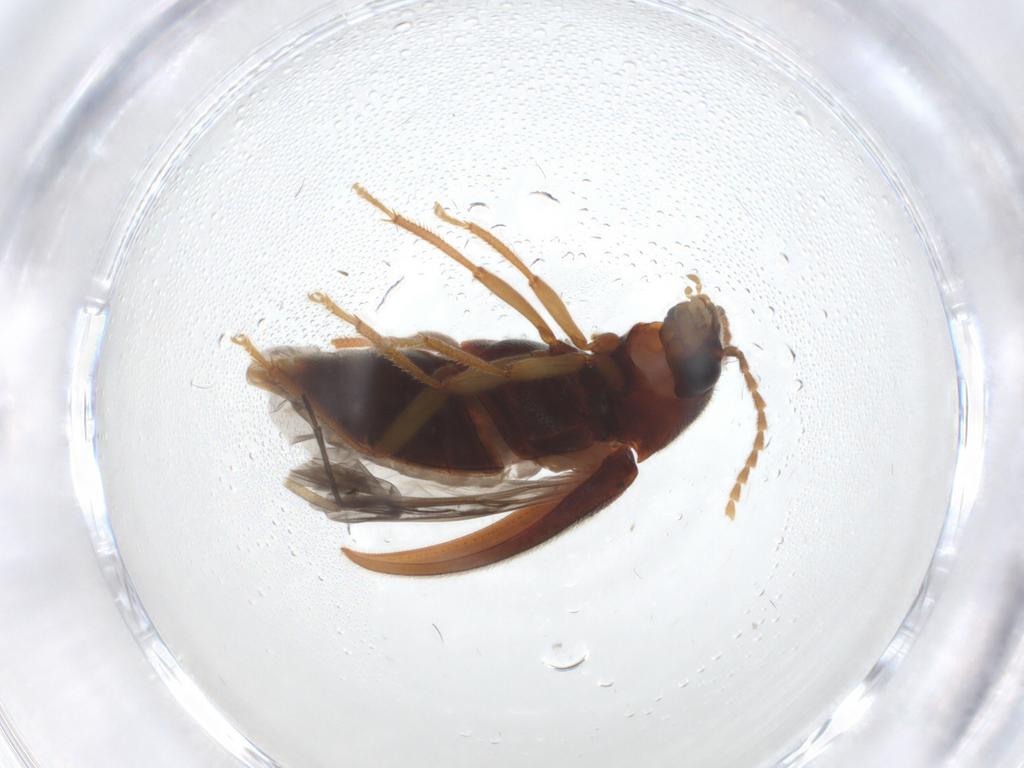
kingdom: Animalia
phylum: Arthropoda
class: Insecta
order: Coleoptera
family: Ptilodactylidae
